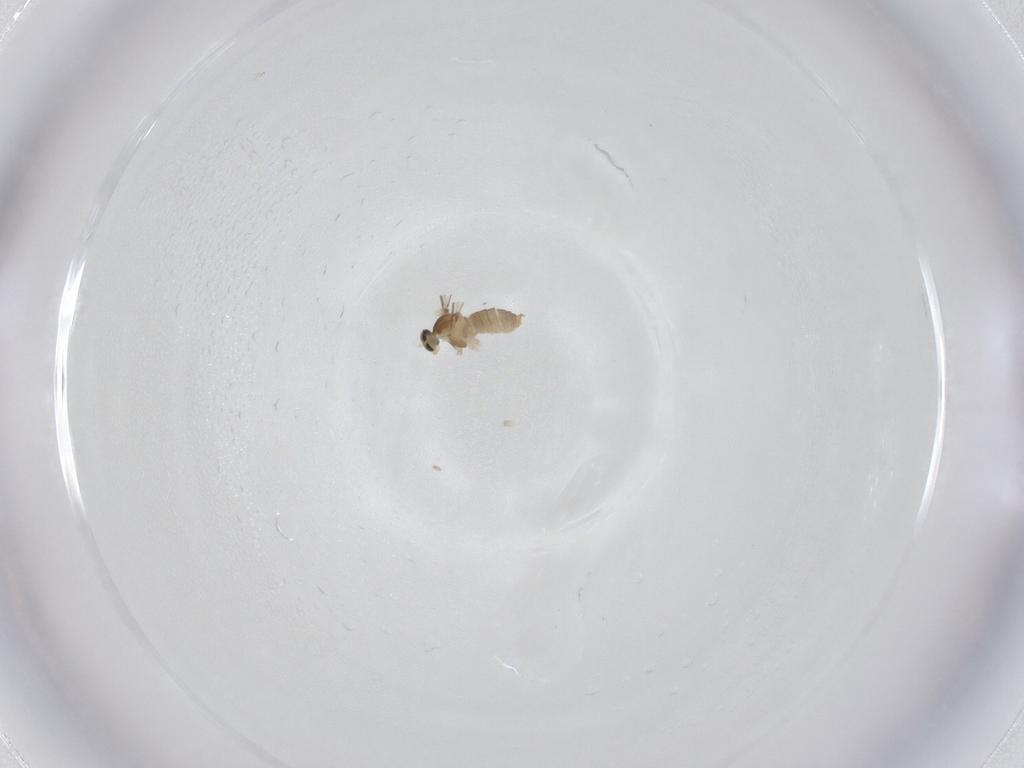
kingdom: Animalia
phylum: Arthropoda
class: Insecta
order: Diptera
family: Cecidomyiidae
